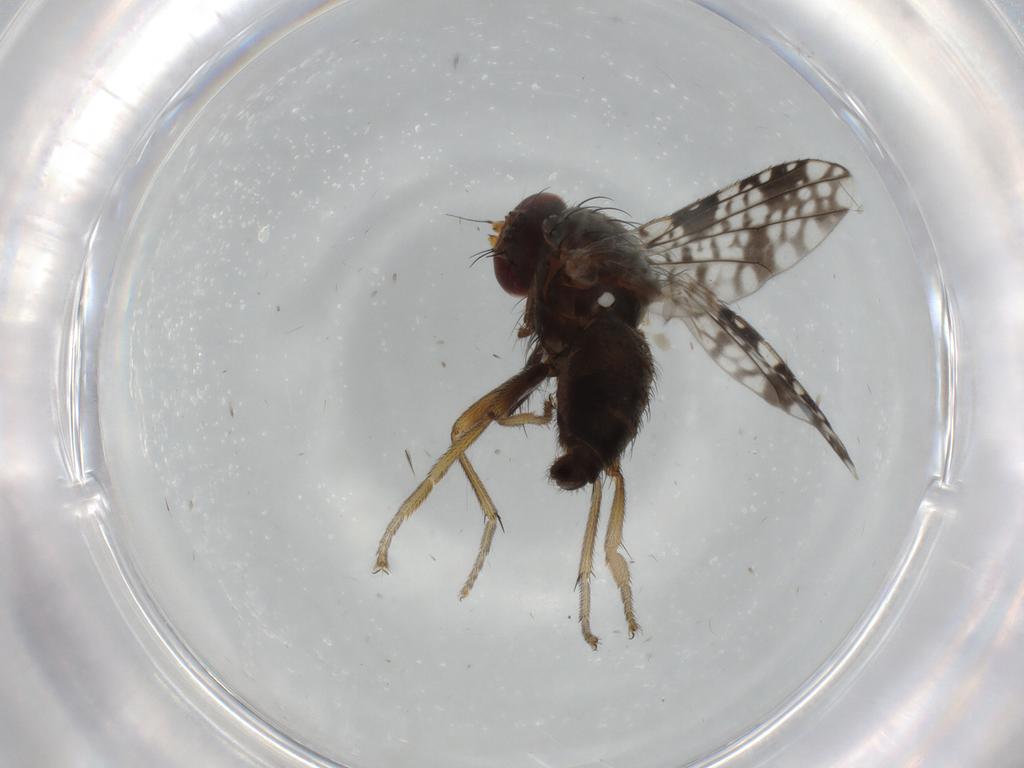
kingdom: Animalia
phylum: Arthropoda
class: Insecta
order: Diptera
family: Tephritidae
